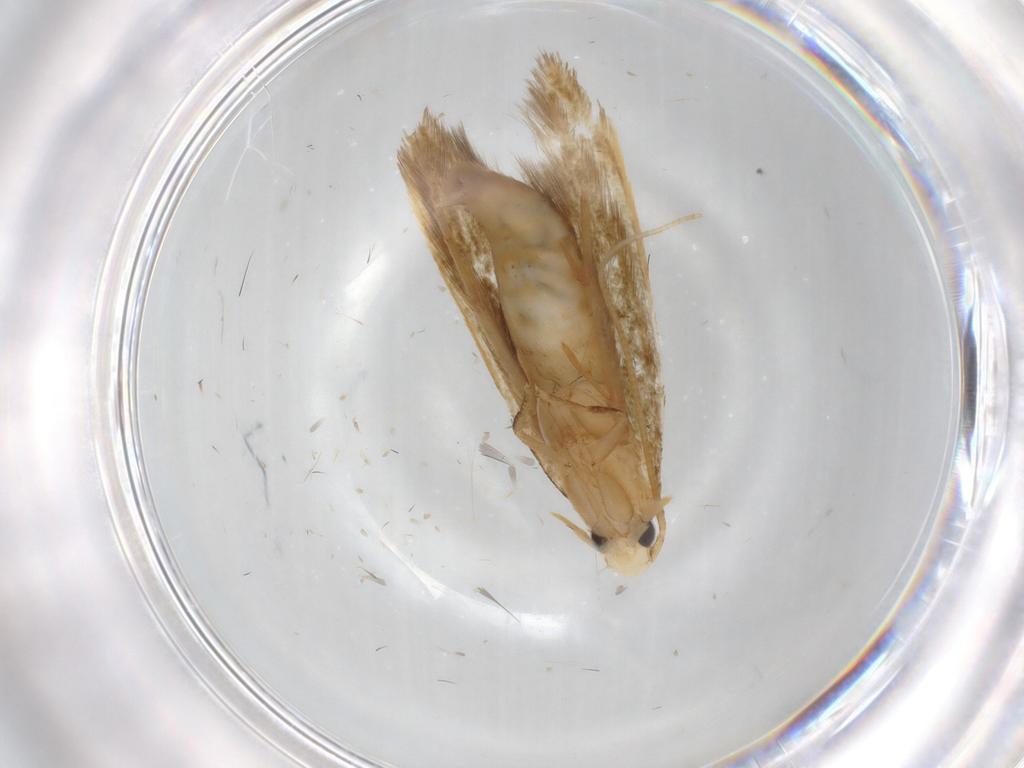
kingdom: Animalia
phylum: Arthropoda
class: Insecta
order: Lepidoptera
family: Tineidae
